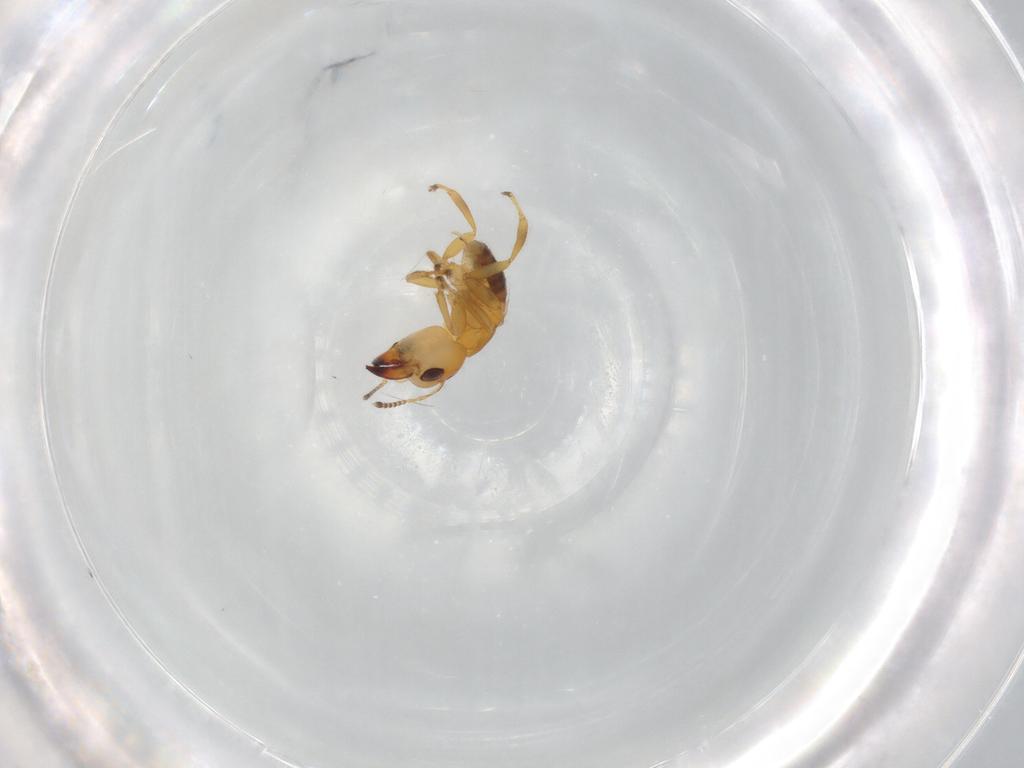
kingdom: Animalia
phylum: Arthropoda
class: Insecta
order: Hymenoptera
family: Pteromalidae
